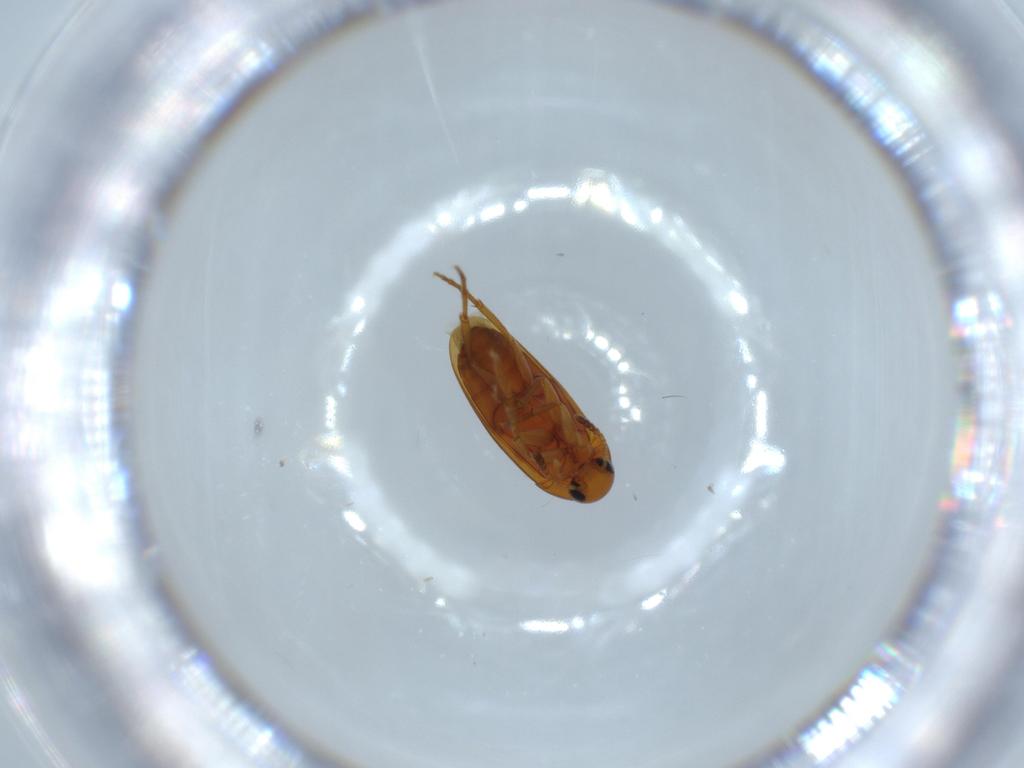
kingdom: Animalia
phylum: Arthropoda
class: Insecta
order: Coleoptera
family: Scraptiidae
